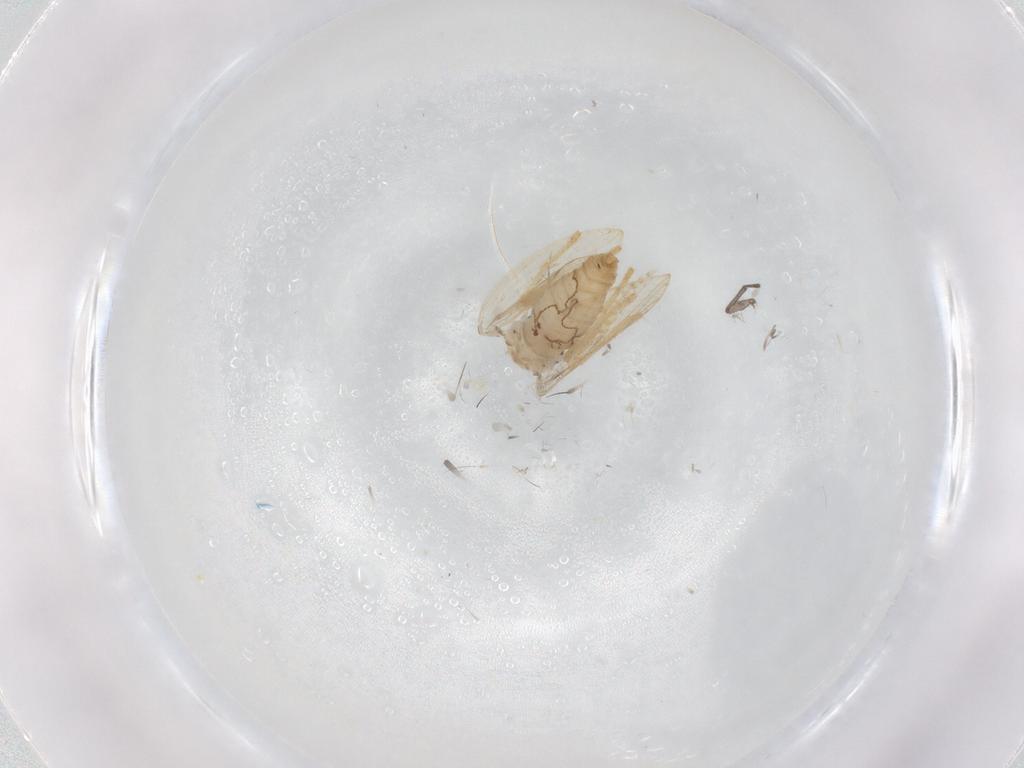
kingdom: Animalia
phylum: Arthropoda
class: Insecta
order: Diptera
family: Psychodidae
